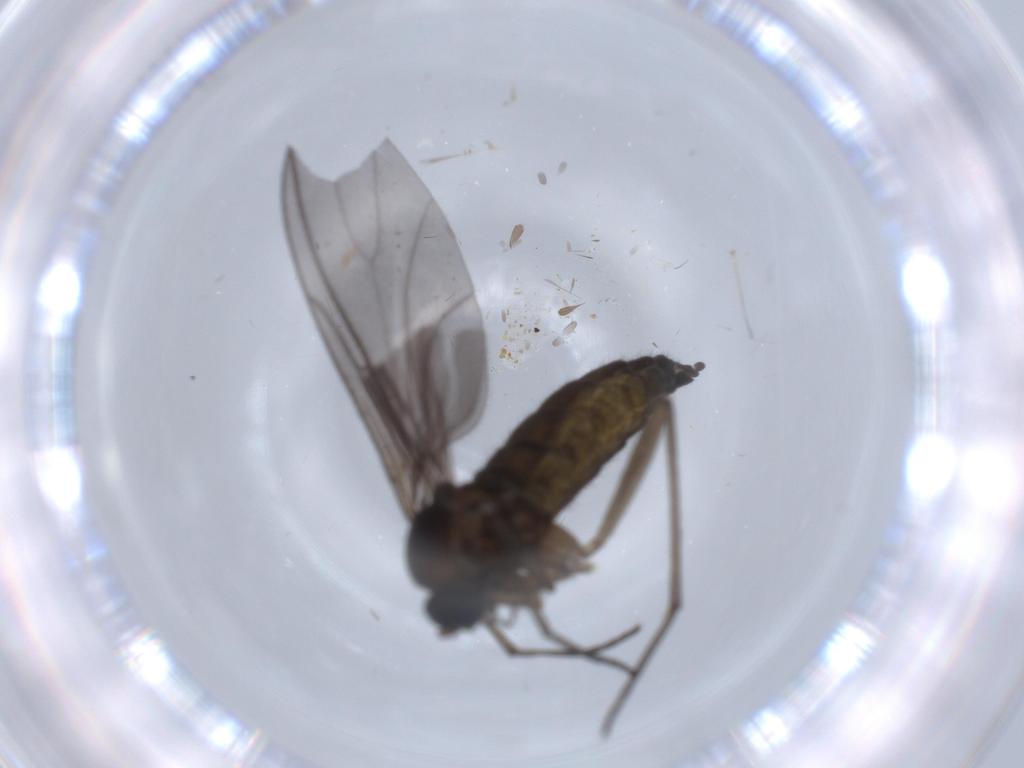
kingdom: Animalia
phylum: Arthropoda
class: Insecta
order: Diptera
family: Sciaridae
